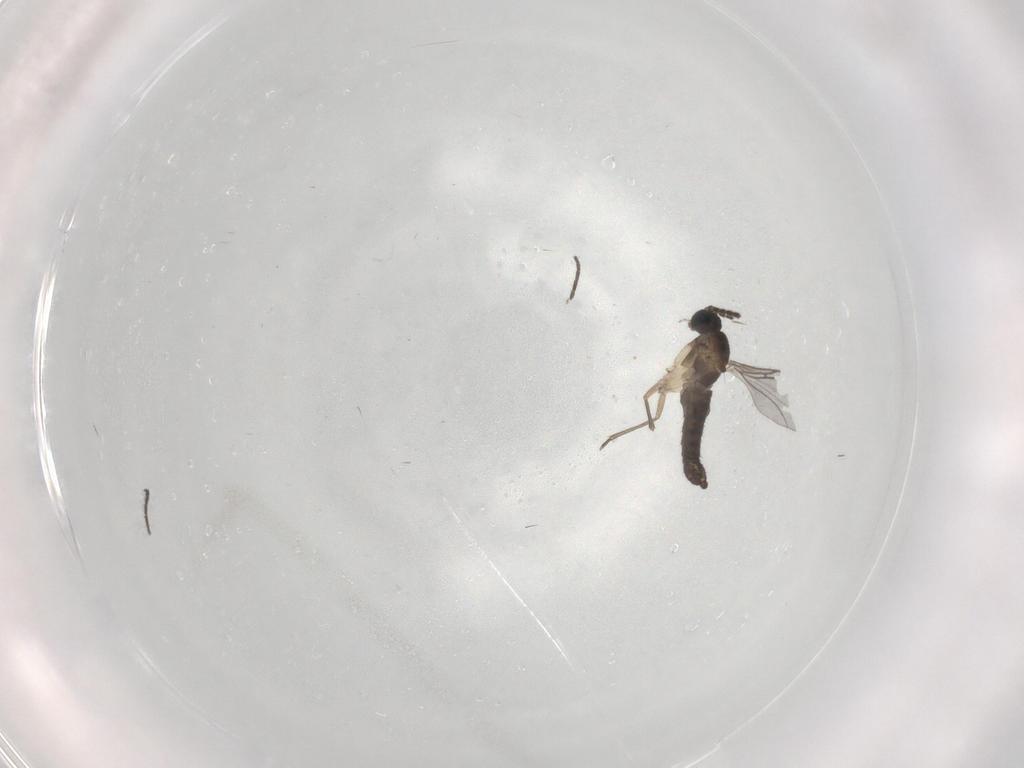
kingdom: Animalia
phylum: Arthropoda
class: Insecta
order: Diptera
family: Sciaridae
